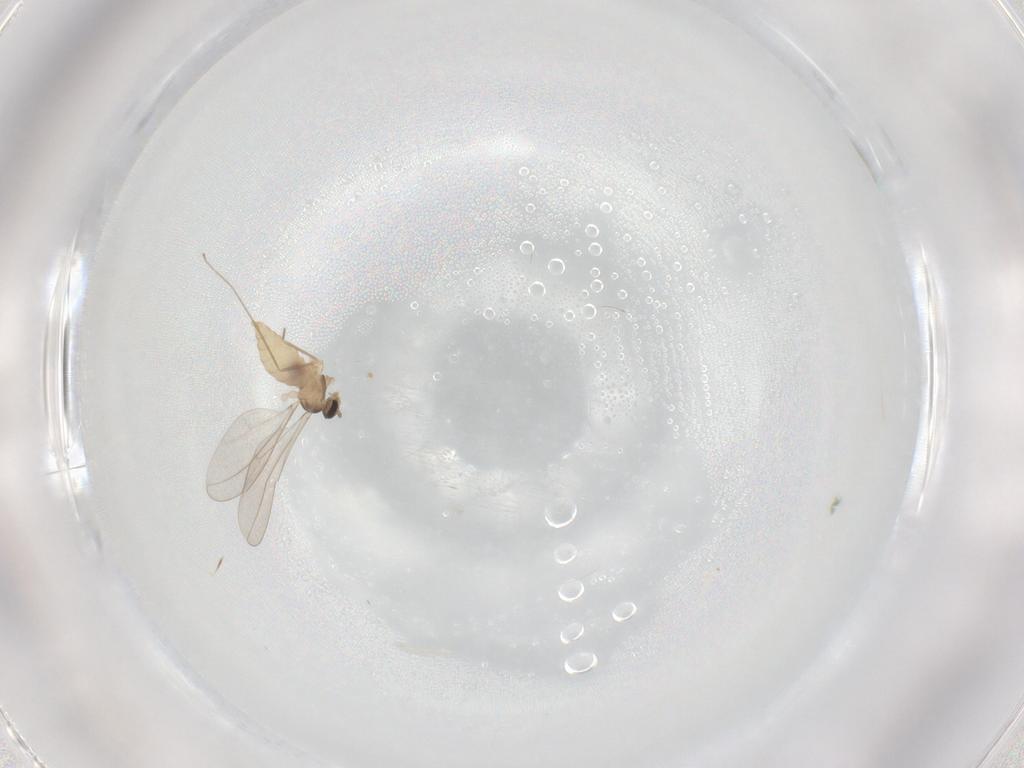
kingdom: Animalia
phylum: Arthropoda
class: Insecta
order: Diptera
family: Cecidomyiidae
